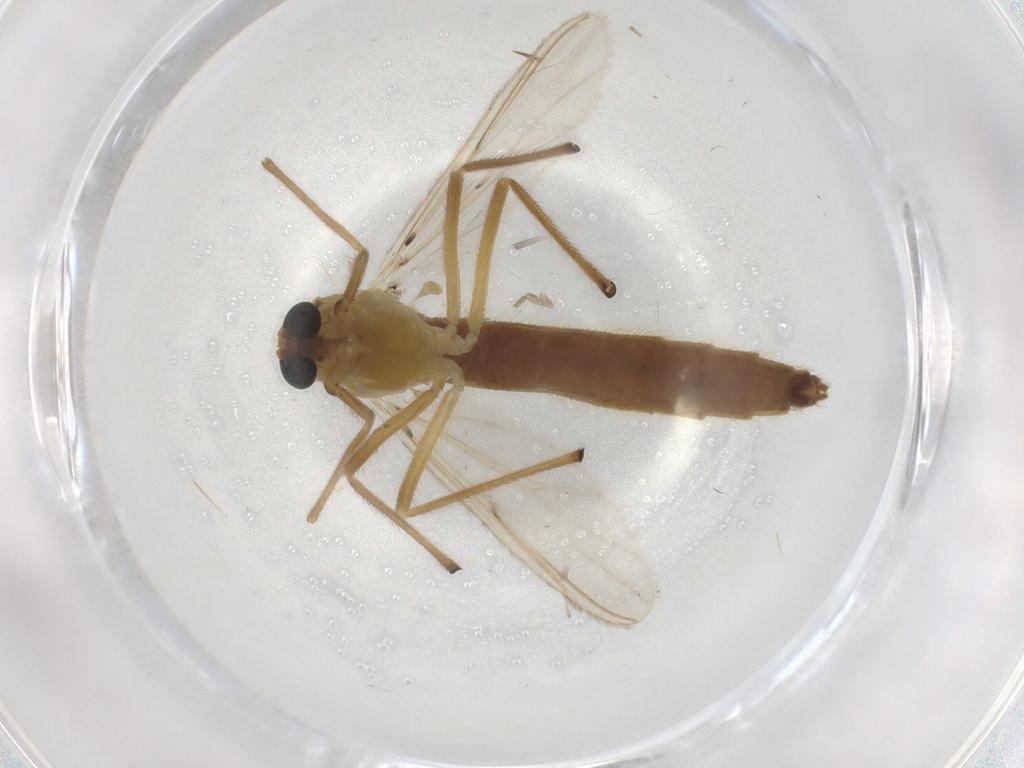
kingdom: Animalia
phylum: Arthropoda
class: Insecta
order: Diptera
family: Chironomidae
